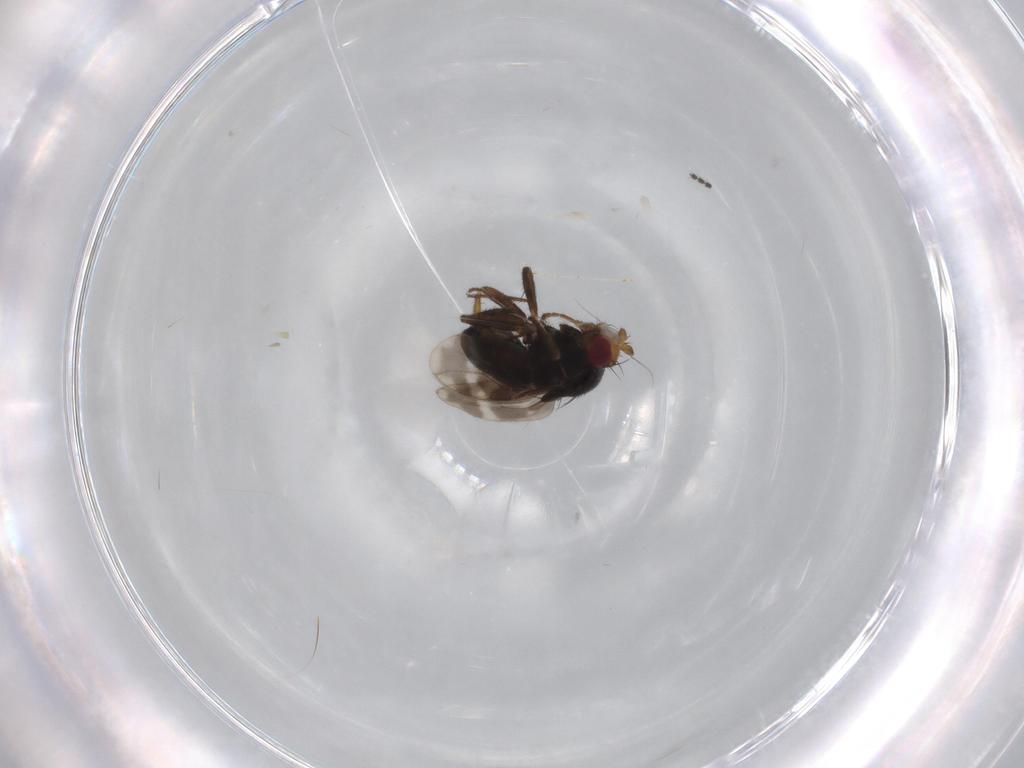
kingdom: Animalia
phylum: Arthropoda
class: Insecta
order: Diptera
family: Sphaeroceridae
